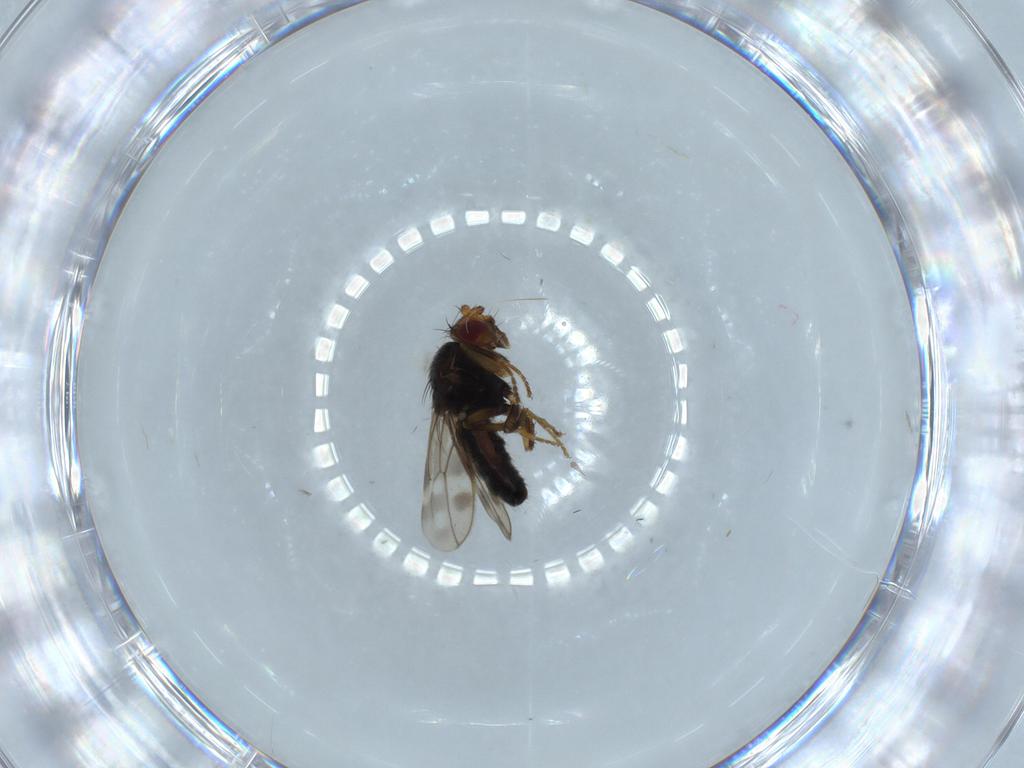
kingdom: Animalia
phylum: Arthropoda
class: Insecta
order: Diptera
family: Sphaeroceridae
